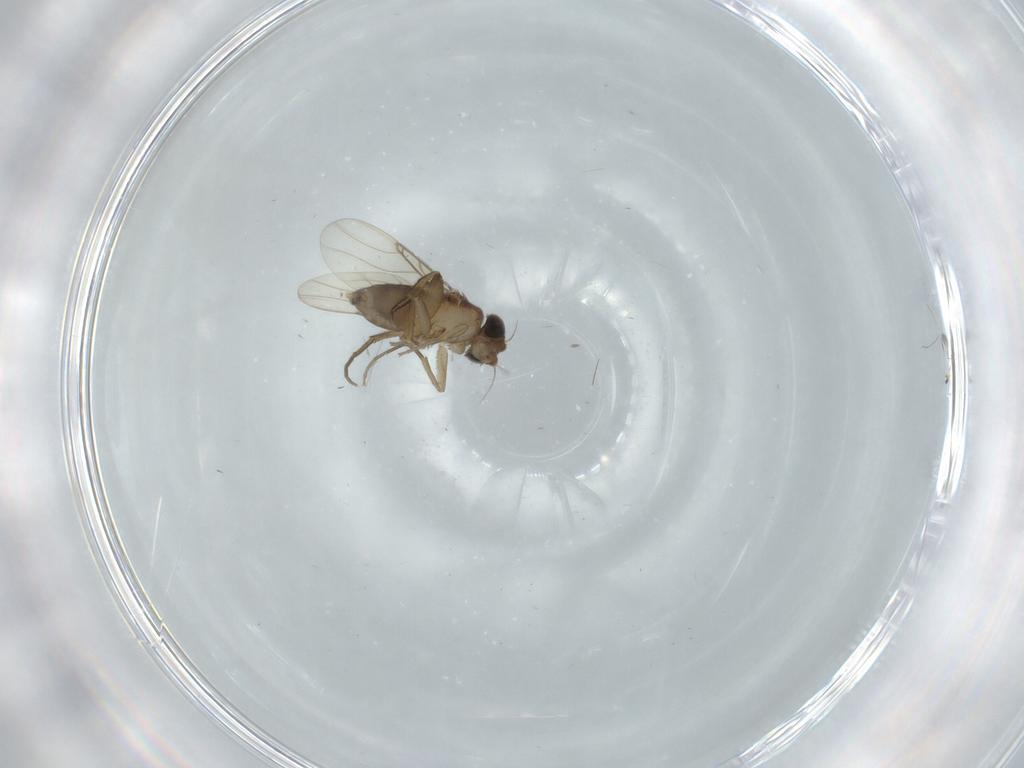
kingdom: Animalia
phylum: Arthropoda
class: Insecta
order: Diptera
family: Phoridae
